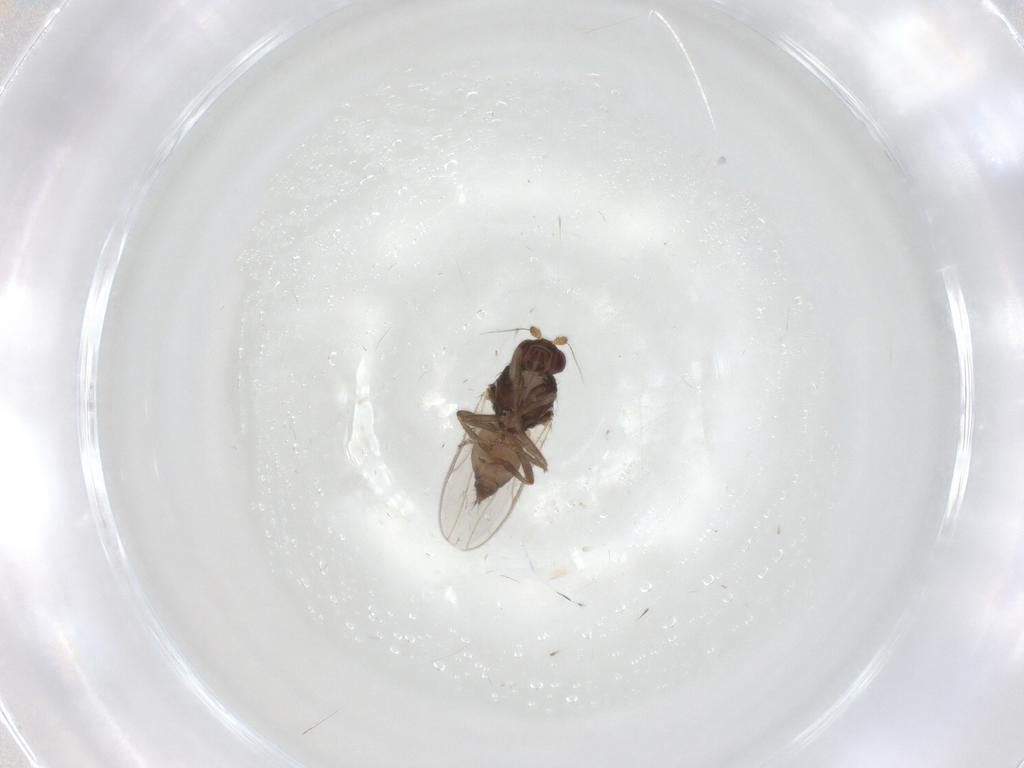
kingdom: Animalia
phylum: Arthropoda
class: Insecta
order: Diptera
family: Sphaeroceridae
